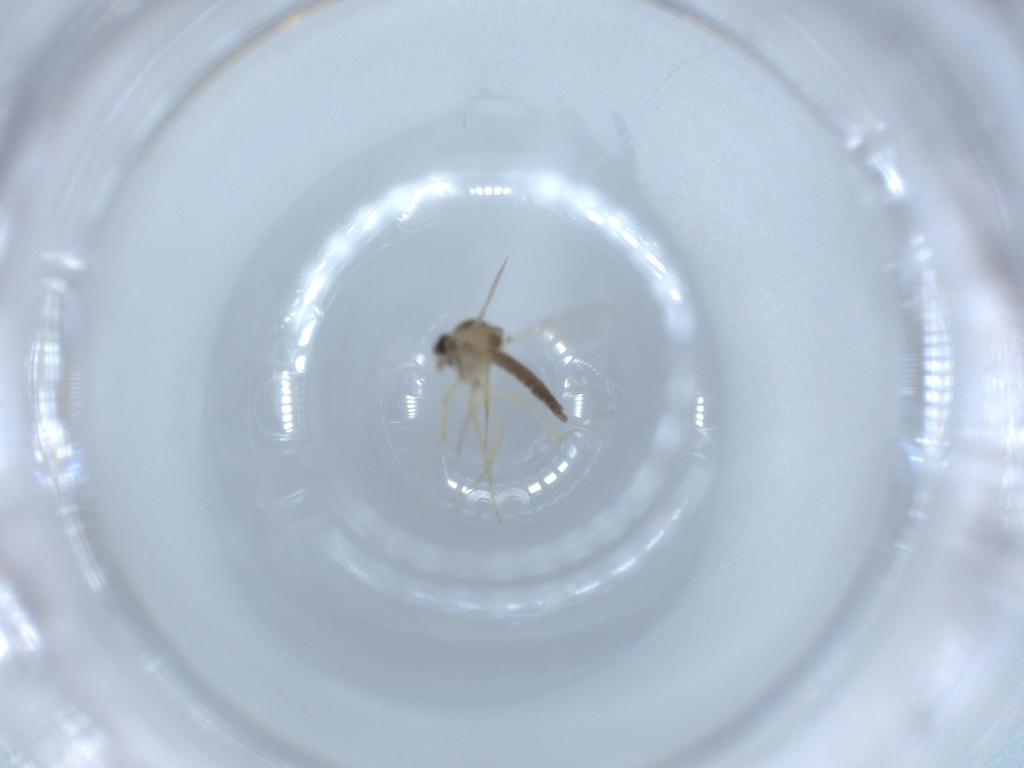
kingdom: Animalia
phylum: Arthropoda
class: Insecta
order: Diptera
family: Ceratopogonidae
